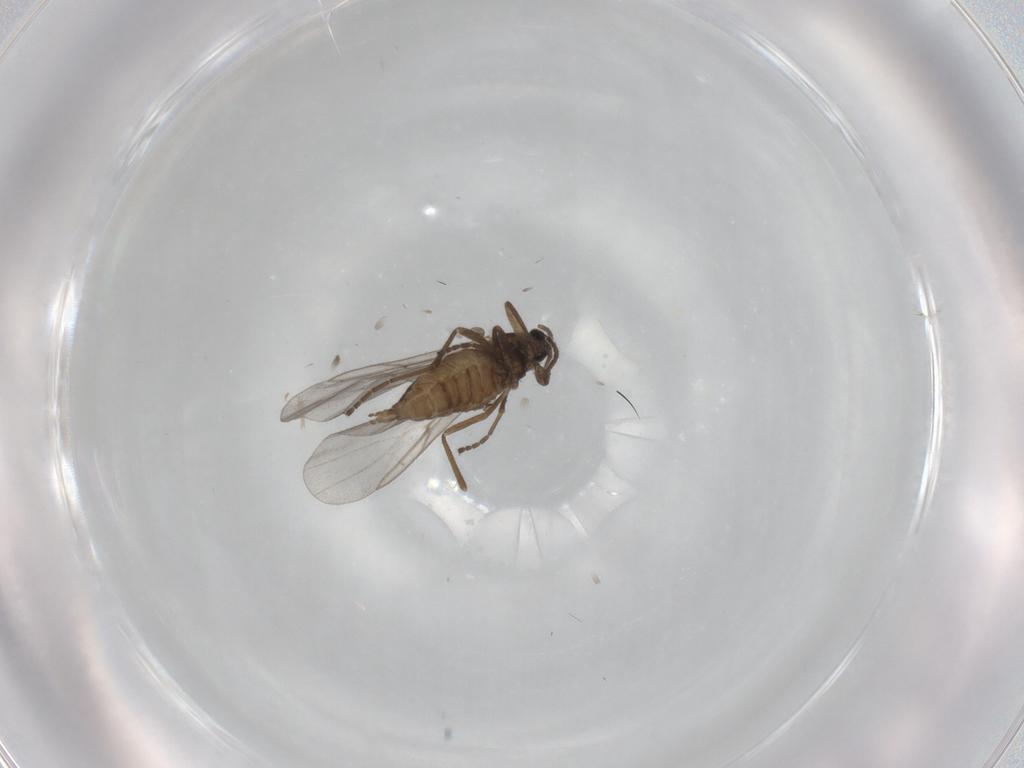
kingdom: Animalia
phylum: Arthropoda
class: Insecta
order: Diptera
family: Cecidomyiidae
